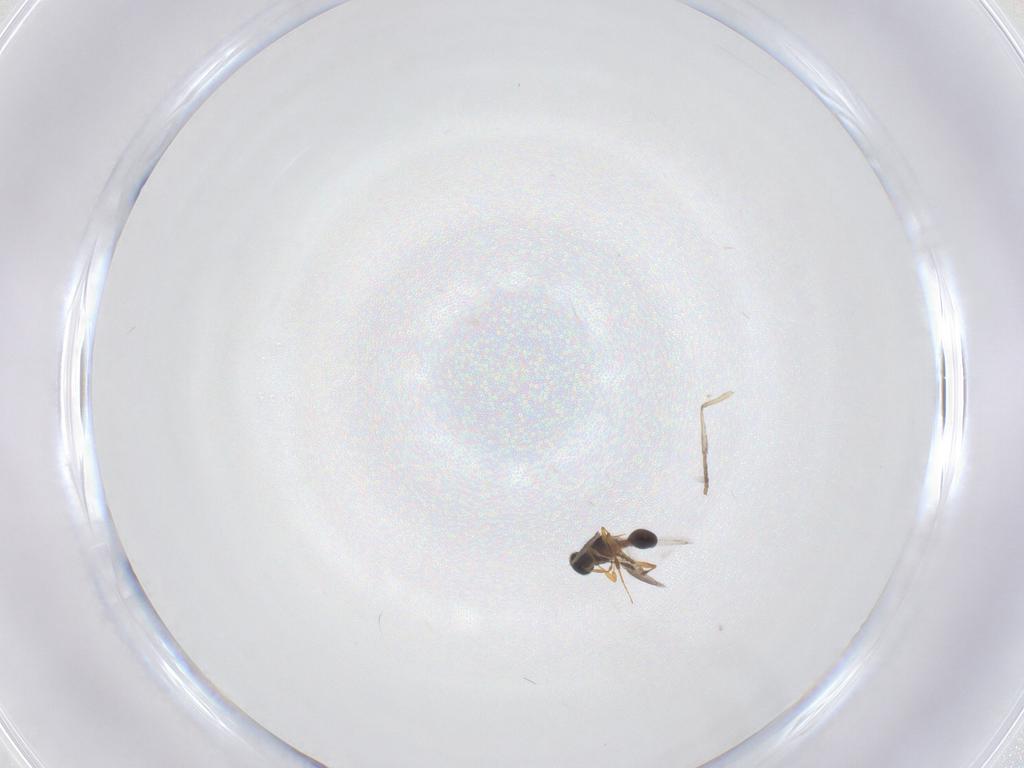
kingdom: Animalia
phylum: Arthropoda
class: Insecta
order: Hymenoptera
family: Platygastridae
